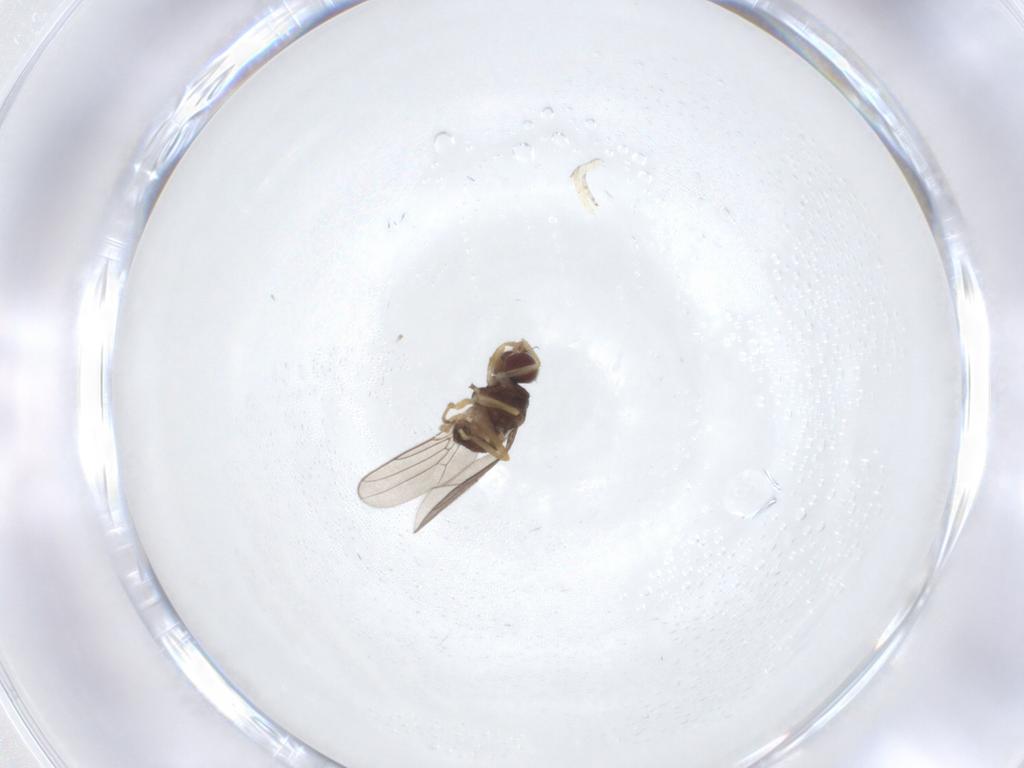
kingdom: Animalia
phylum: Arthropoda
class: Insecta
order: Diptera
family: Chloropidae
